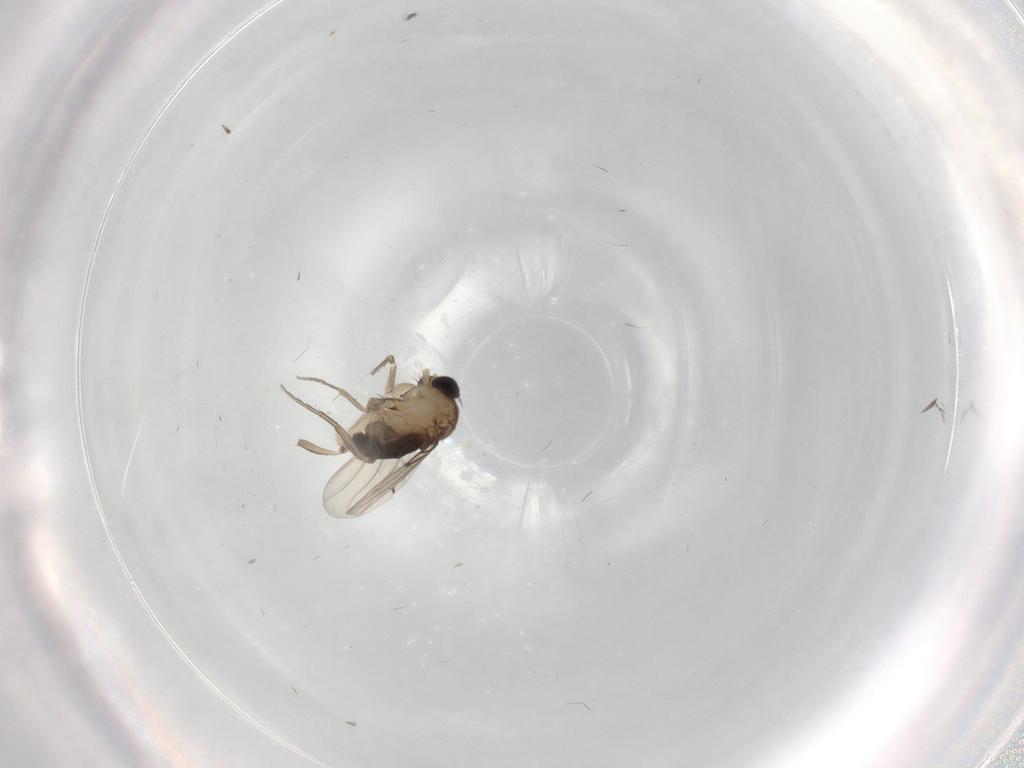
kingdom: Animalia
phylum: Arthropoda
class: Insecta
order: Diptera
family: Phoridae
